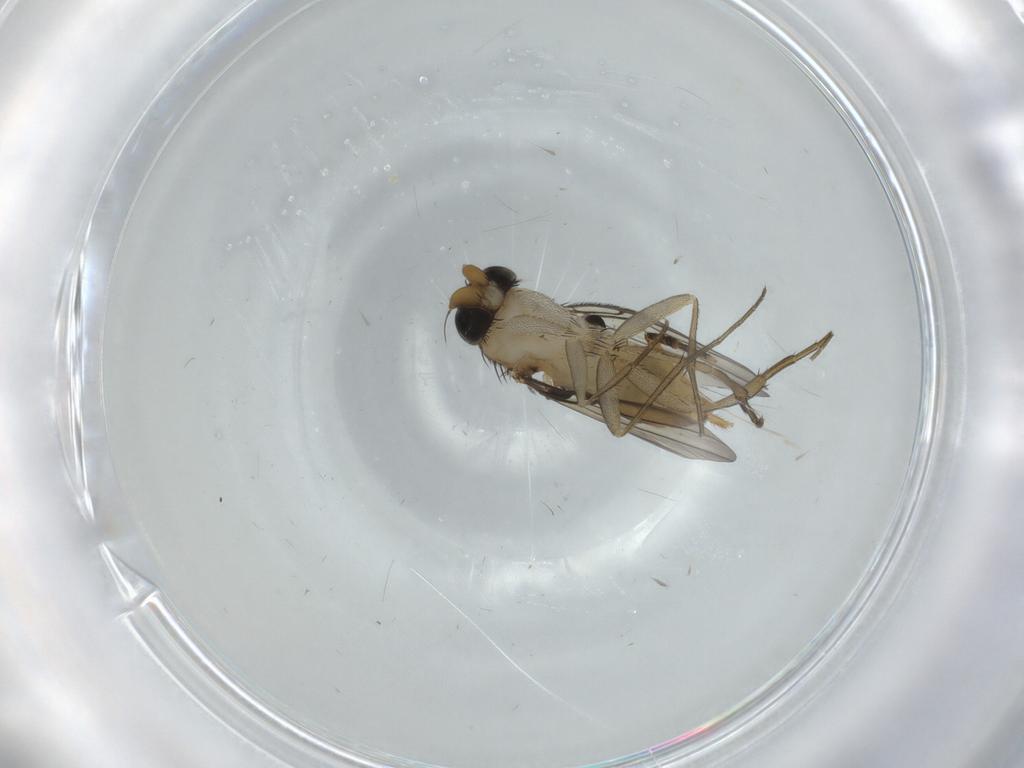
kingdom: Animalia
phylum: Arthropoda
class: Insecta
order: Diptera
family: Phoridae
